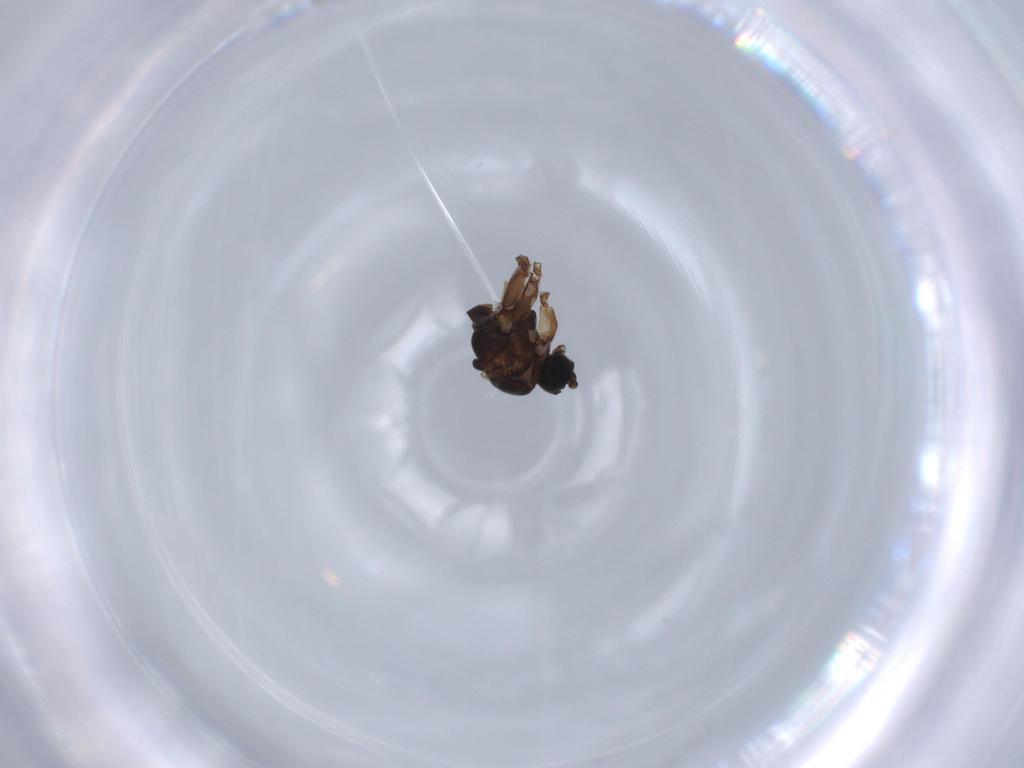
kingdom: Animalia
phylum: Arthropoda
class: Insecta
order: Diptera
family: Sciaridae
